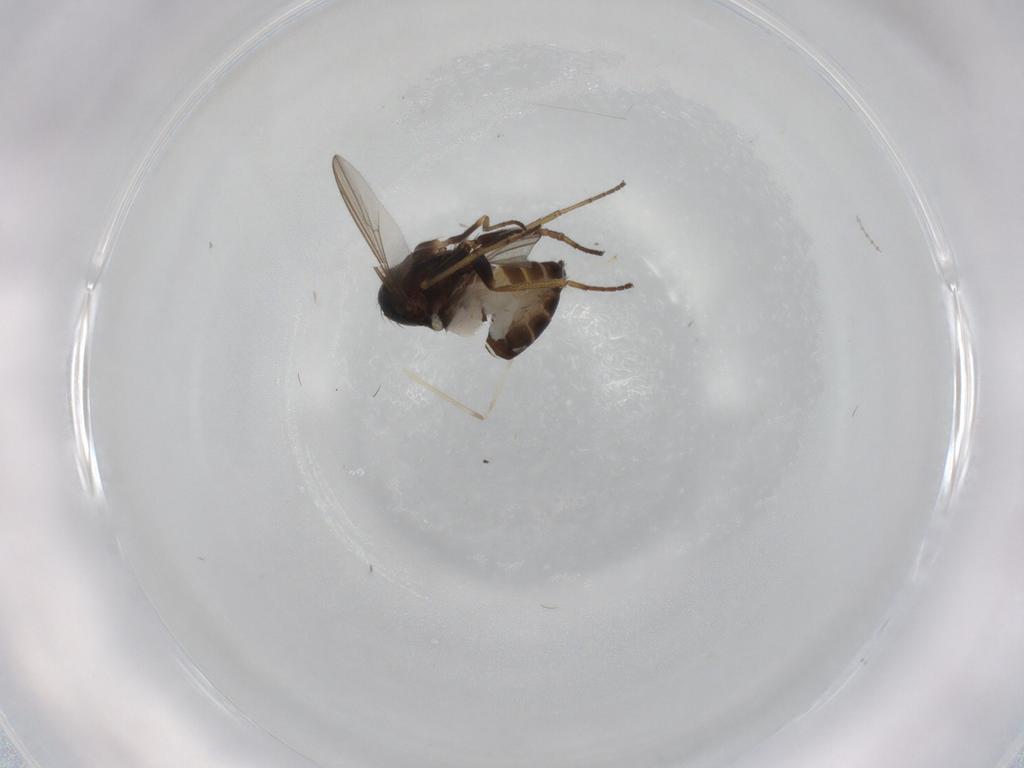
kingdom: Animalia
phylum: Arthropoda
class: Insecta
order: Diptera
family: Dolichopodidae
